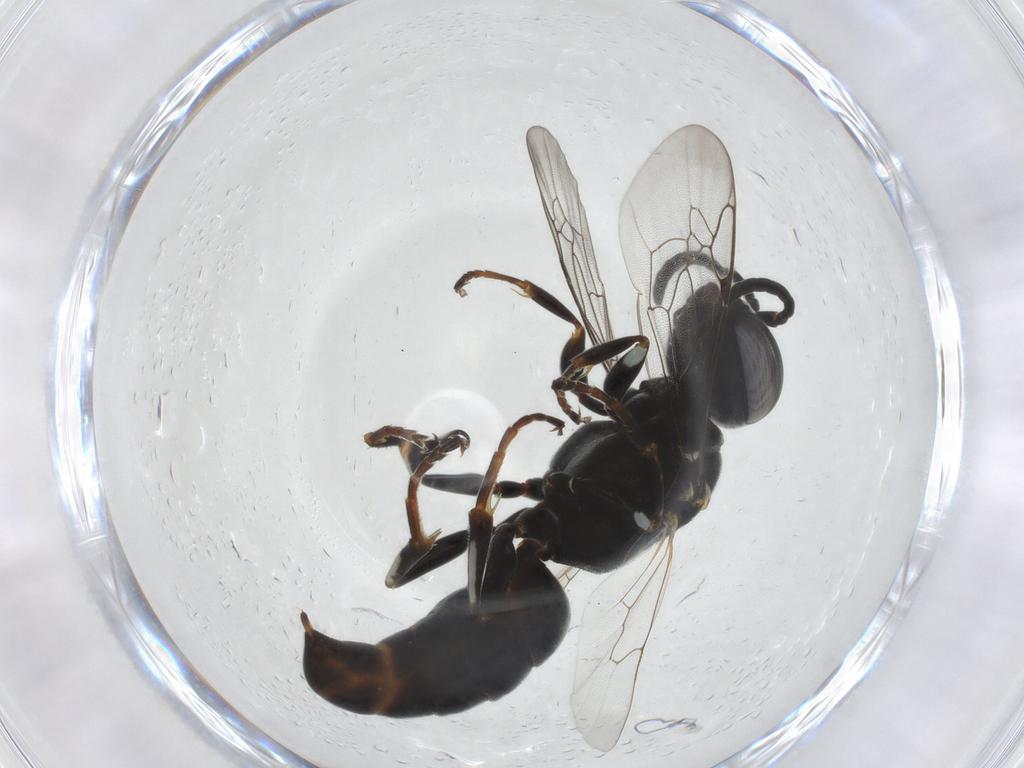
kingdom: Animalia
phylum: Arthropoda
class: Insecta
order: Hymenoptera
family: Crabronidae
